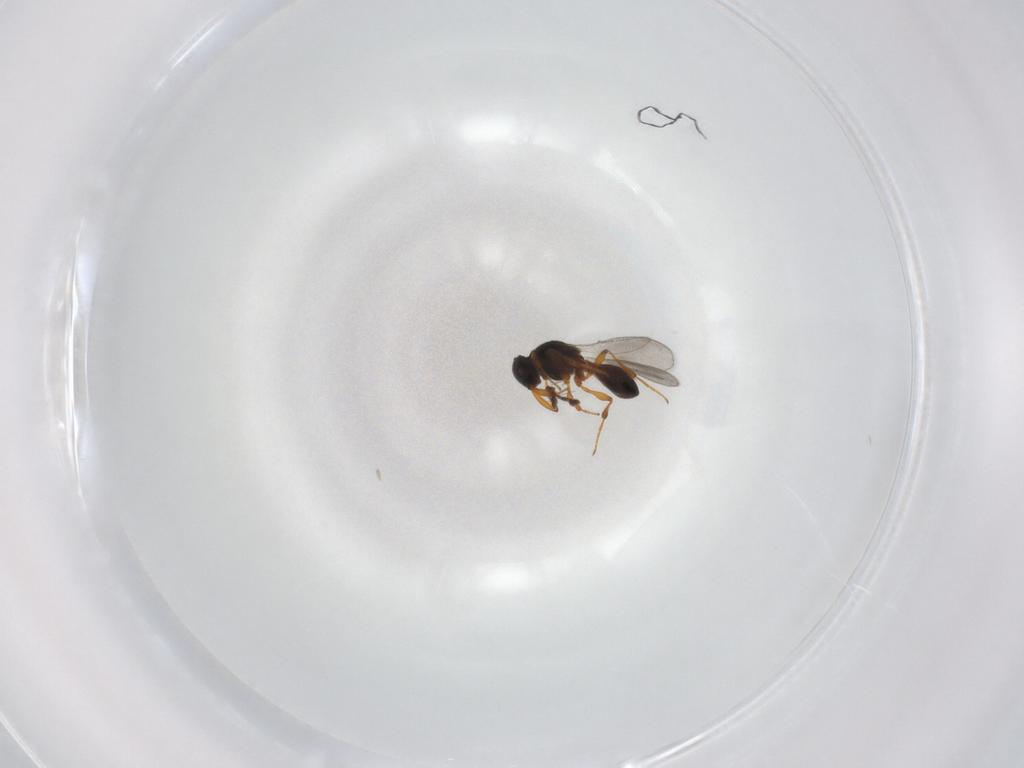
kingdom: Animalia
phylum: Arthropoda
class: Insecta
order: Hymenoptera
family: Platygastridae
